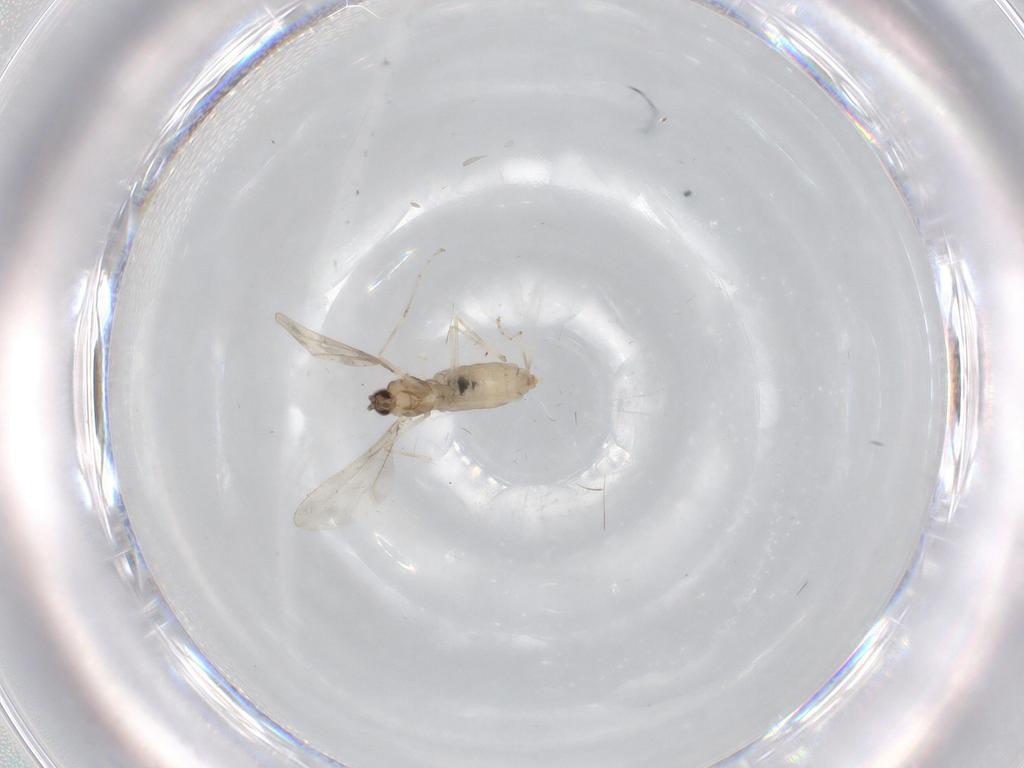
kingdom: Animalia
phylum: Arthropoda
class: Insecta
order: Diptera
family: Cecidomyiidae
